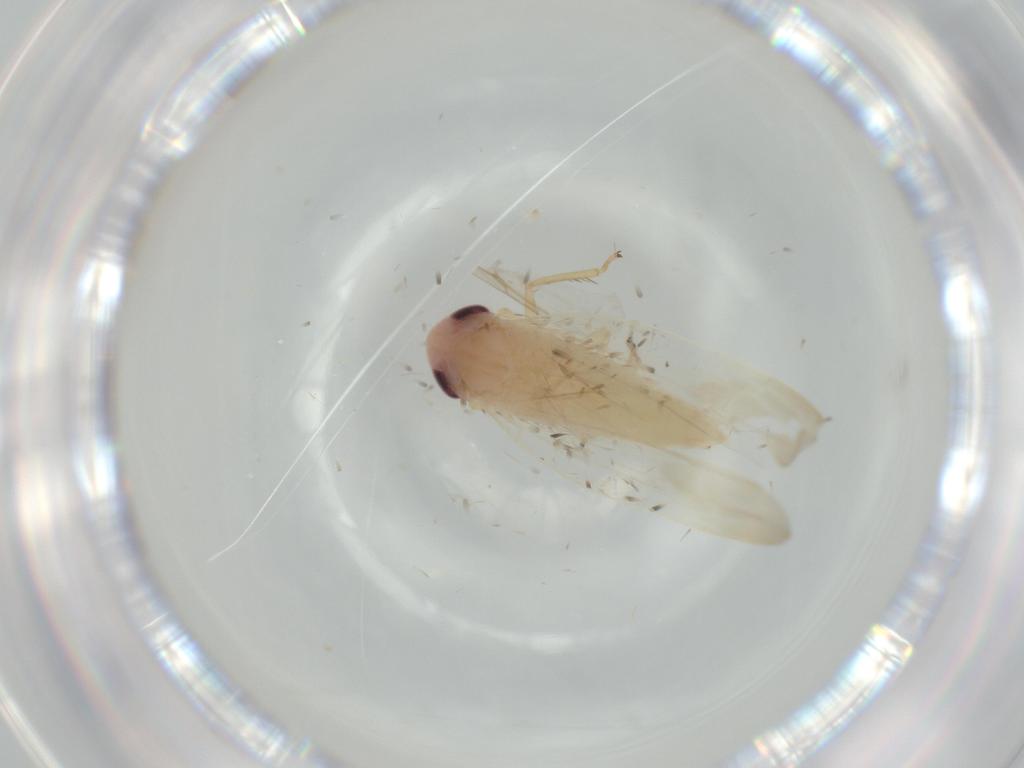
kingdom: Animalia
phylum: Arthropoda
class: Insecta
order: Hemiptera
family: Cicadellidae
